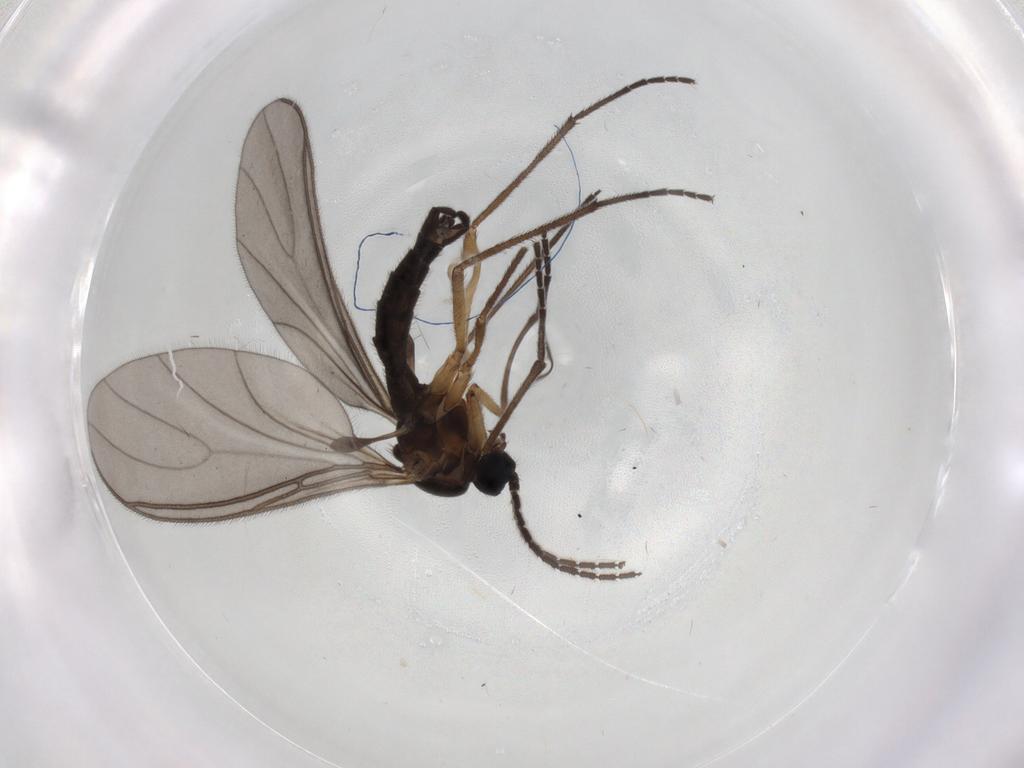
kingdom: Animalia
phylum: Arthropoda
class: Insecta
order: Diptera
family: Sciaridae
